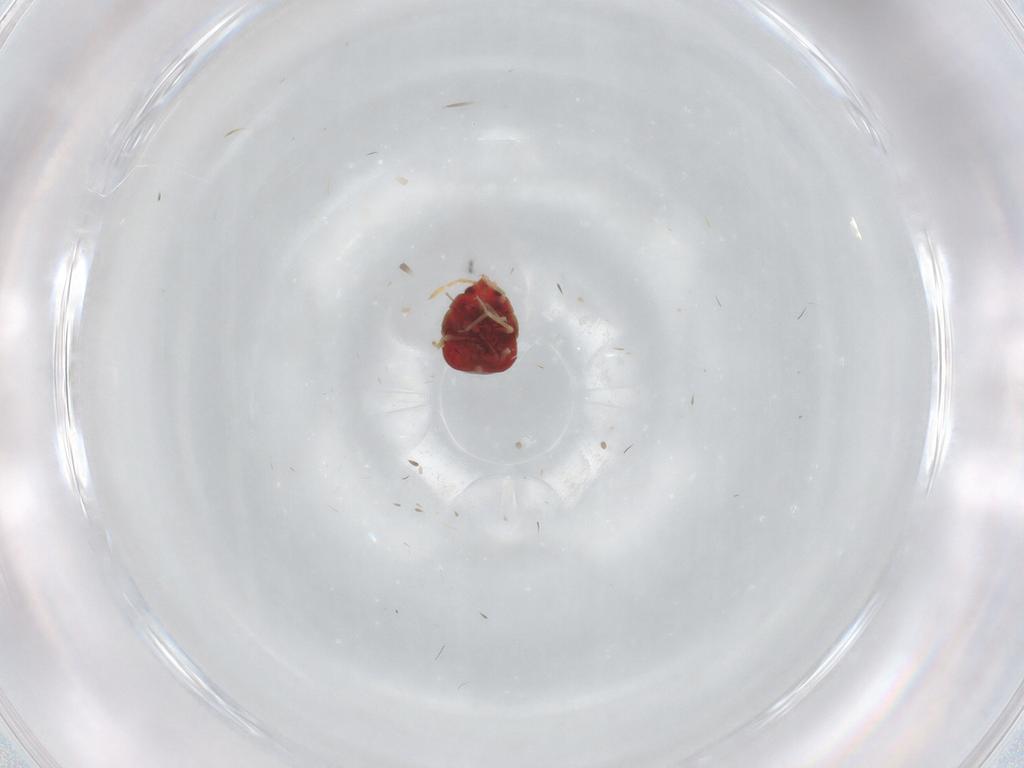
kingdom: Animalia
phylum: Arthropoda
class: Insecta
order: Hemiptera
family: Anthocoridae
